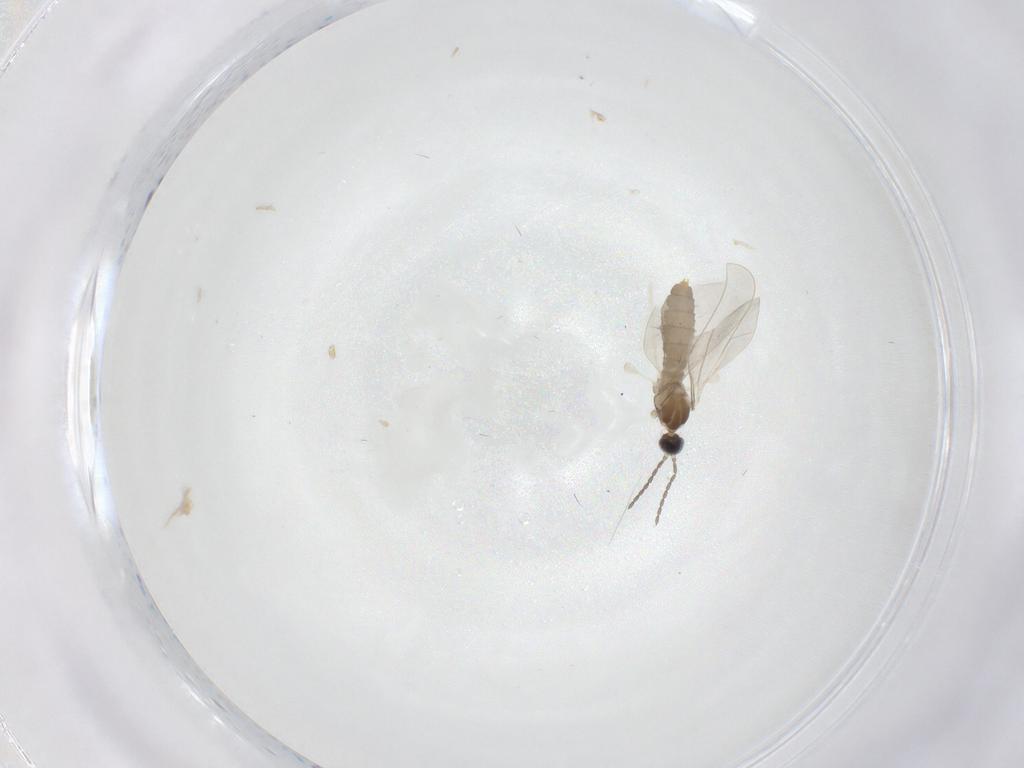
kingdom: Animalia
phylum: Arthropoda
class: Insecta
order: Diptera
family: Cecidomyiidae
